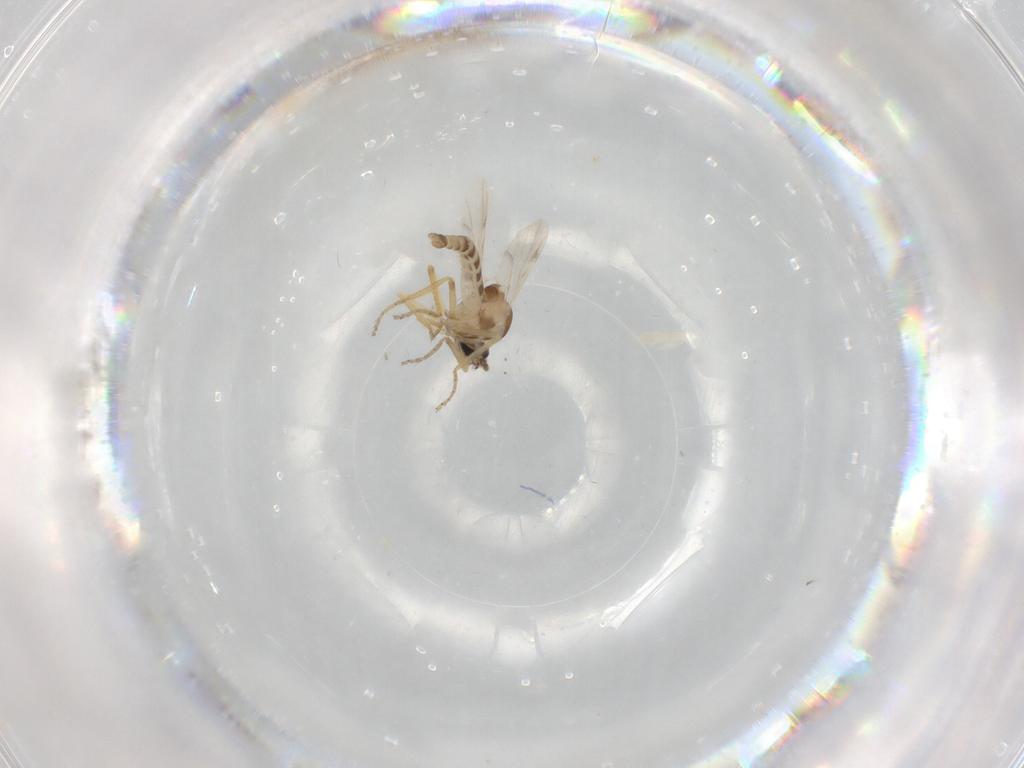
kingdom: Animalia
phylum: Arthropoda
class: Insecta
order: Diptera
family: Ceratopogonidae
